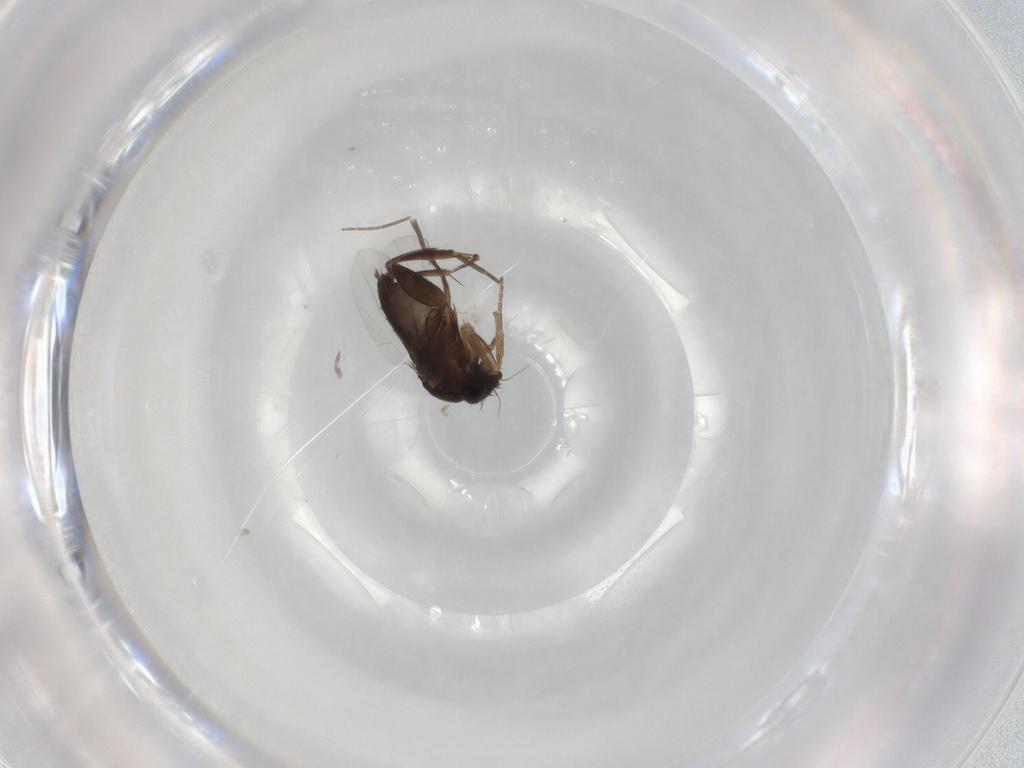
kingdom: Animalia
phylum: Arthropoda
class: Insecta
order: Diptera
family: Phoridae
